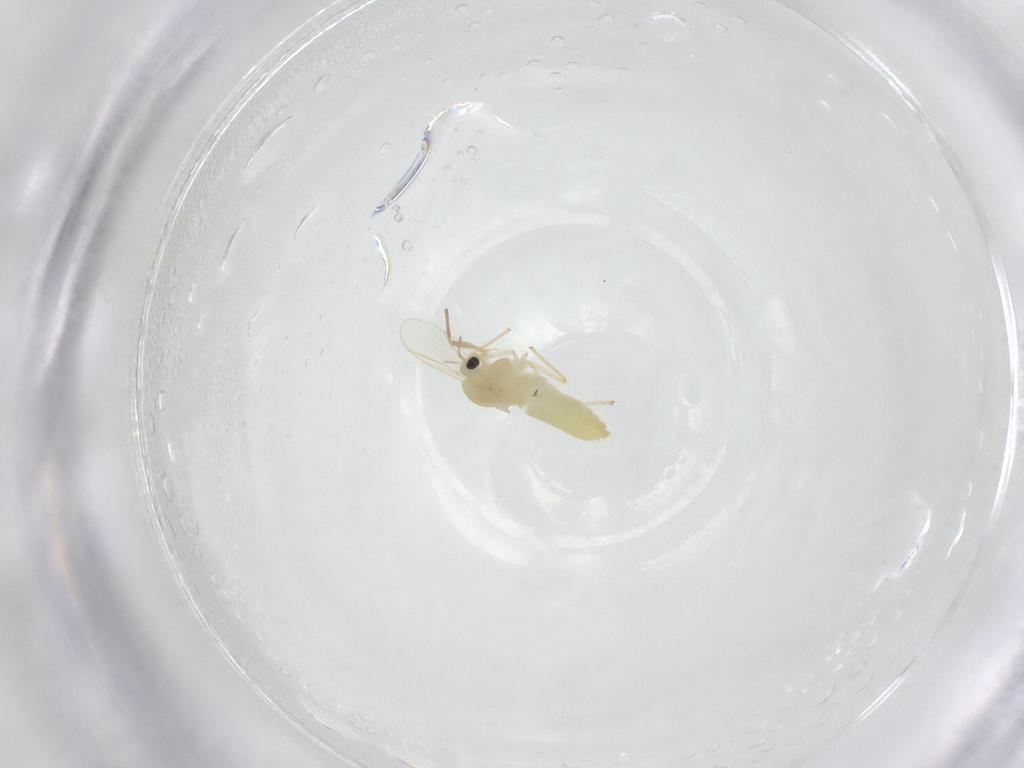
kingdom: Animalia
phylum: Arthropoda
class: Insecta
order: Diptera
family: Chironomidae
